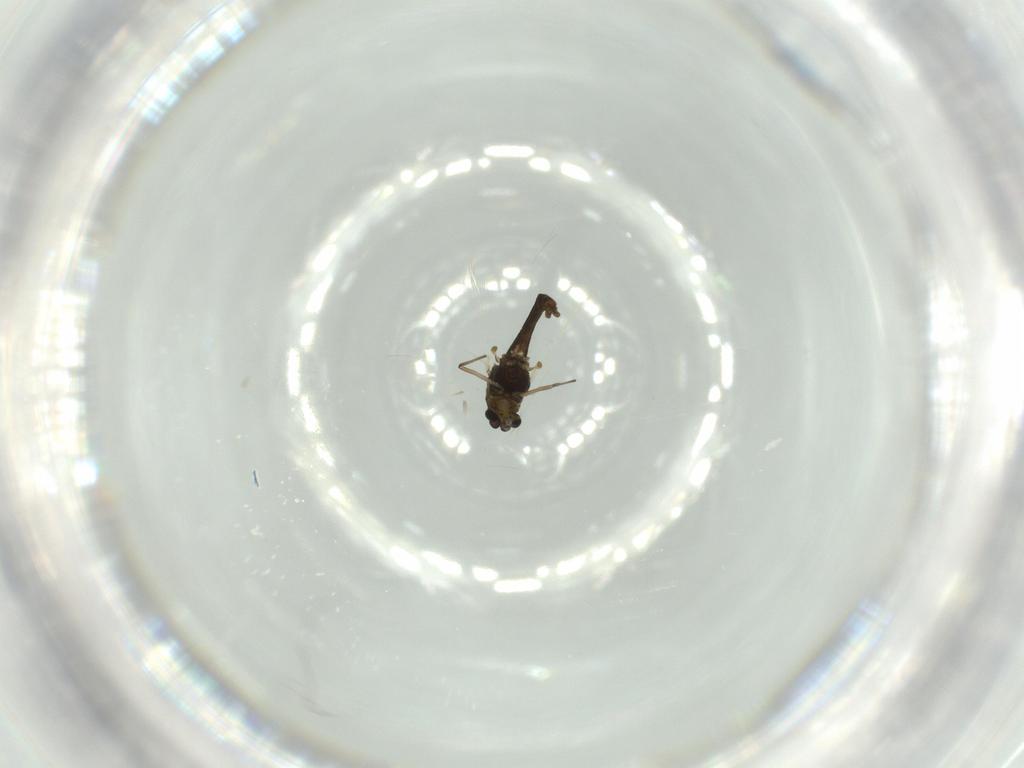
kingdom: Animalia
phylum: Arthropoda
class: Insecta
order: Diptera
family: Chironomidae
